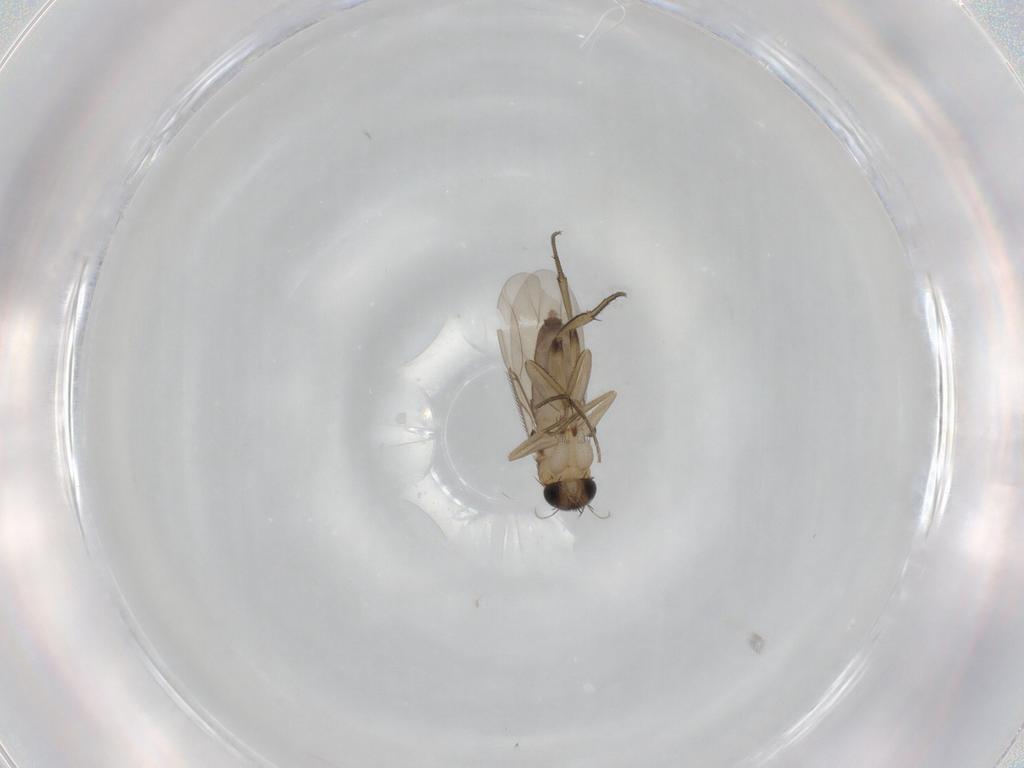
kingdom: Animalia
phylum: Arthropoda
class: Insecta
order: Diptera
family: Phoridae
